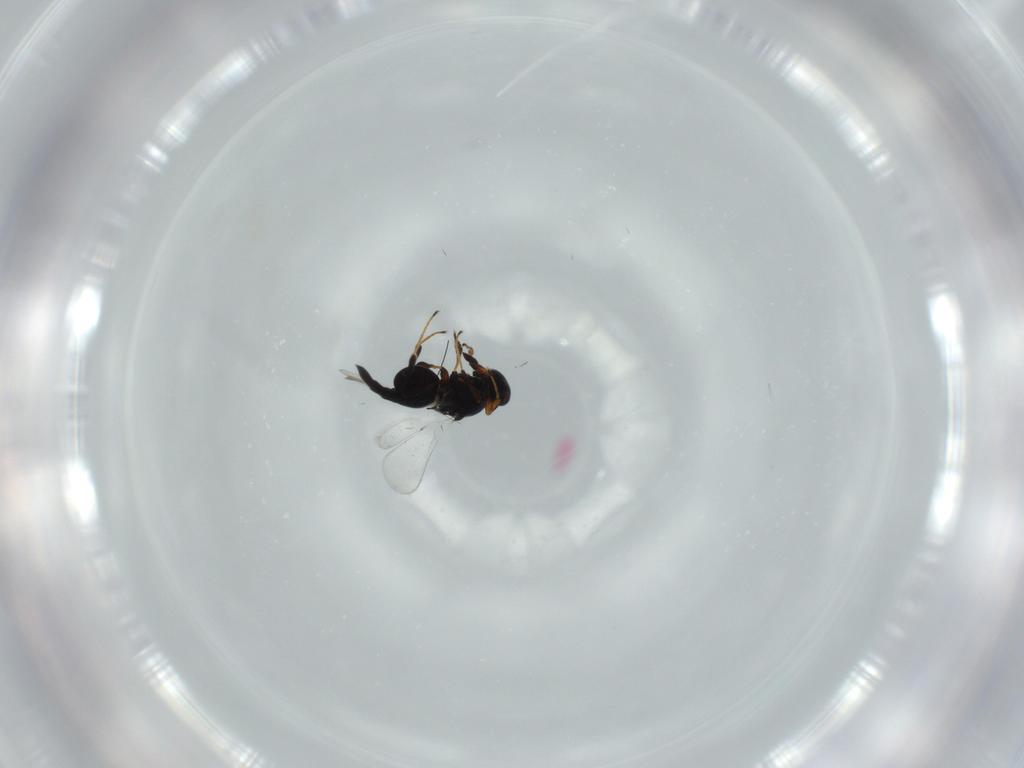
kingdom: Animalia
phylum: Arthropoda
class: Insecta
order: Hymenoptera
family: Platygastridae
